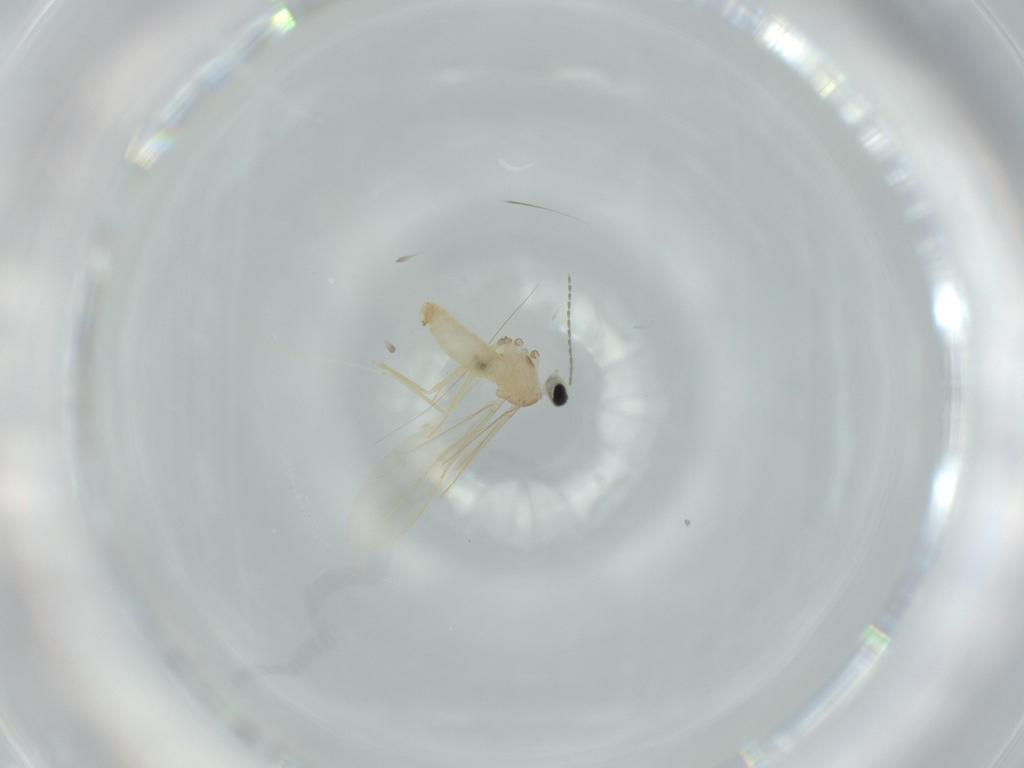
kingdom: Animalia
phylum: Arthropoda
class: Insecta
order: Diptera
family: Cecidomyiidae
